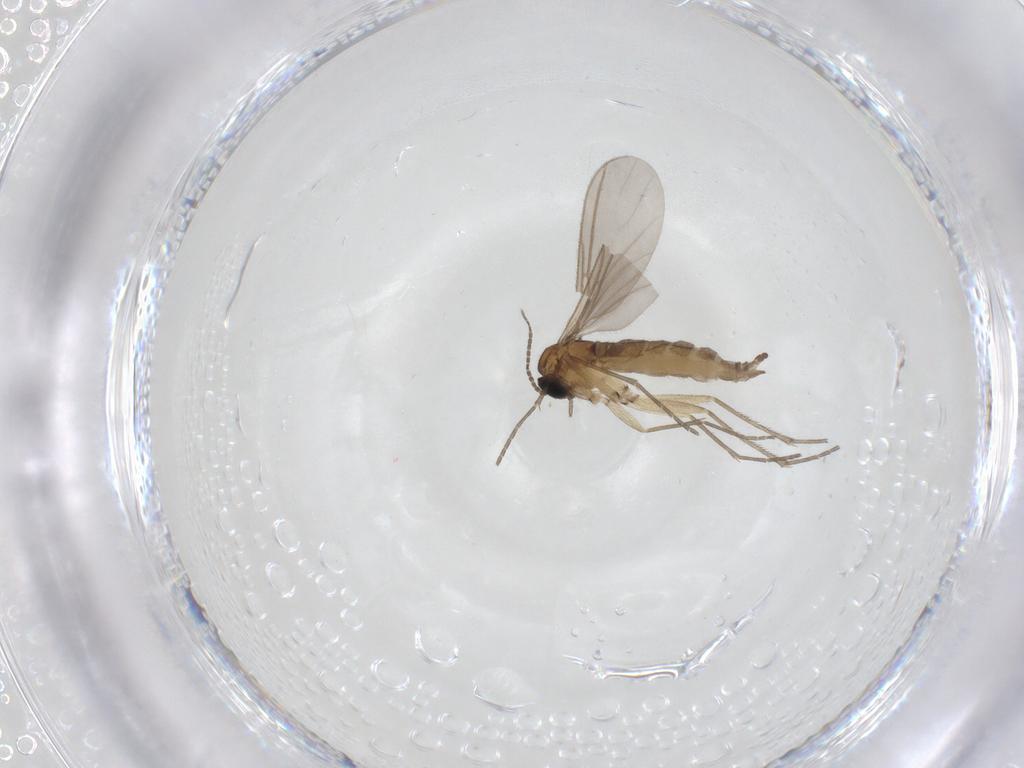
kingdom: Animalia
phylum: Arthropoda
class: Insecta
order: Diptera
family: Sciaridae
